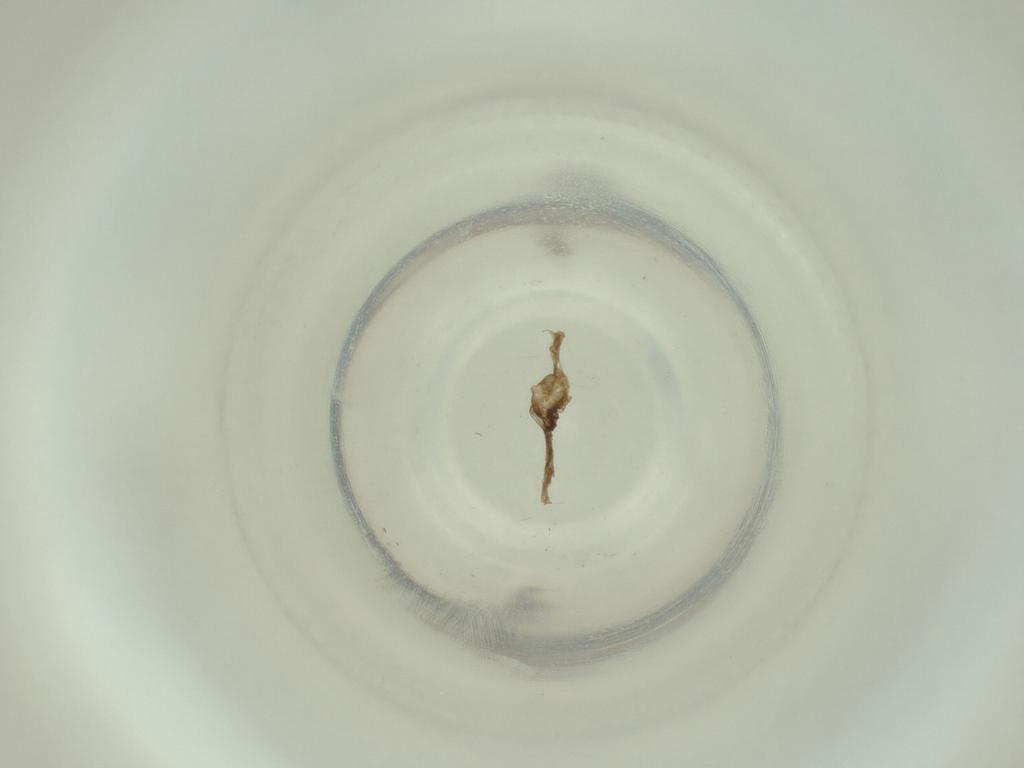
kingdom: Animalia
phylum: Arthropoda
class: Insecta
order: Diptera
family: Cecidomyiidae
